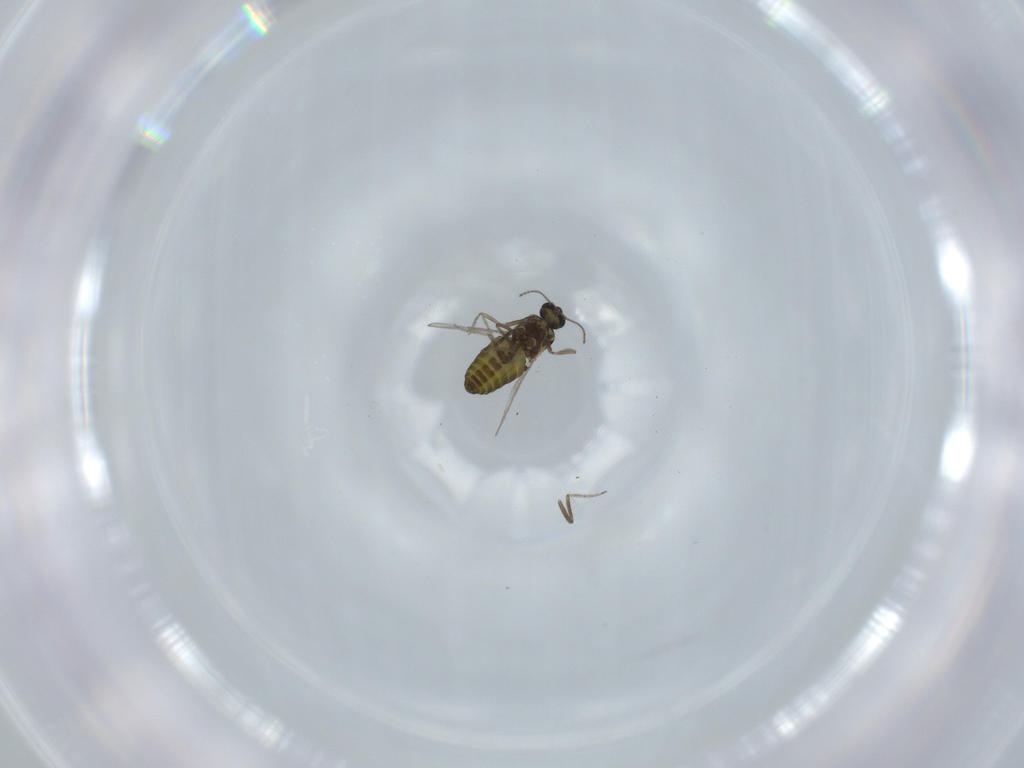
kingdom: Animalia
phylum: Arthropoda
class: Insecta
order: Diptera
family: Ceratopogonidae
